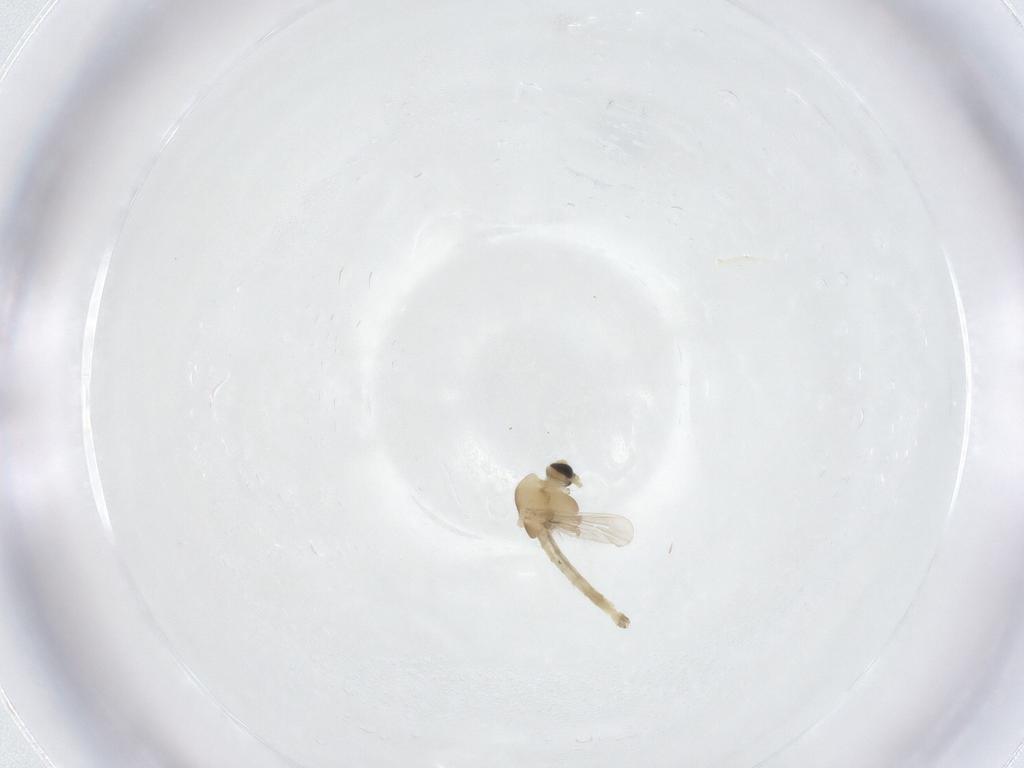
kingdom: Animalia
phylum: Arthropoda
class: Insecta
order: Diptera
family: Chironomidae
